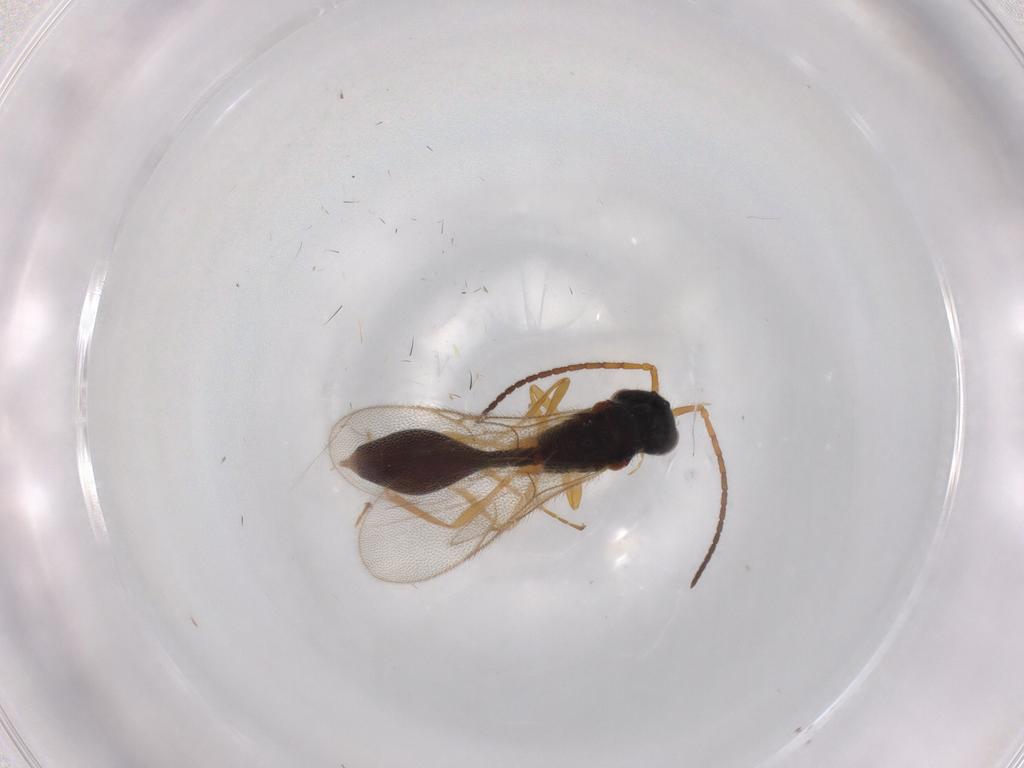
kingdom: Animalia
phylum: Arthropoda
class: Insecta
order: Hymenoptera
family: Diapriidae
